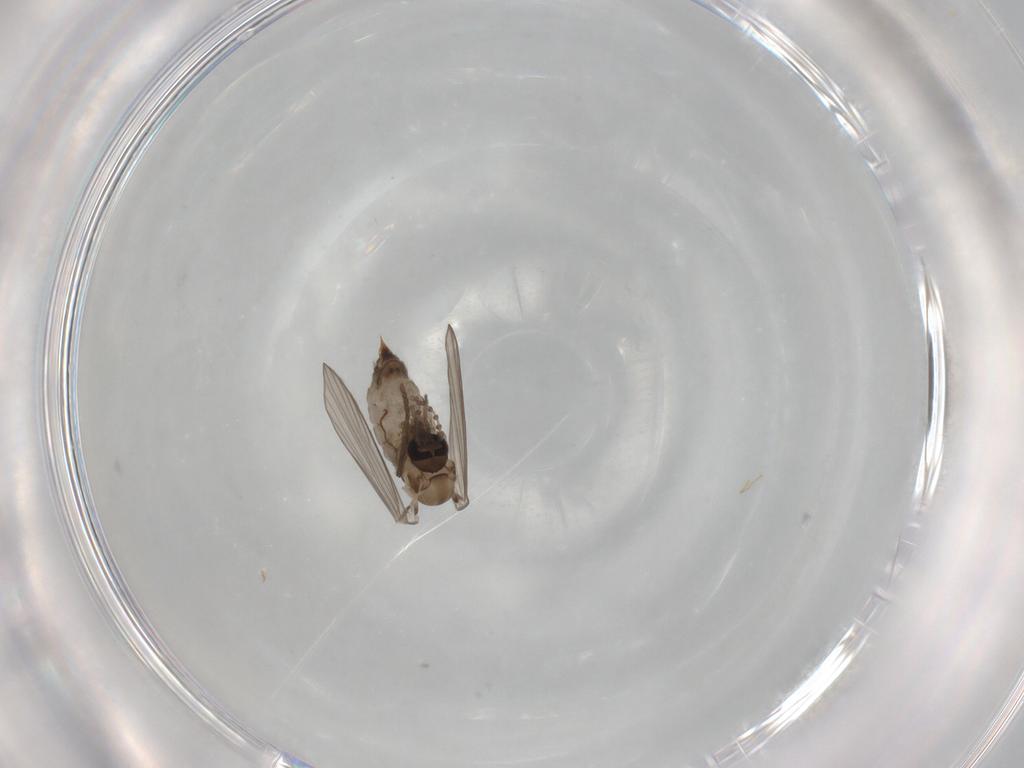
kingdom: Animalia
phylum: Arthropoda
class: Insecta
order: Diptera
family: Psychodidae
